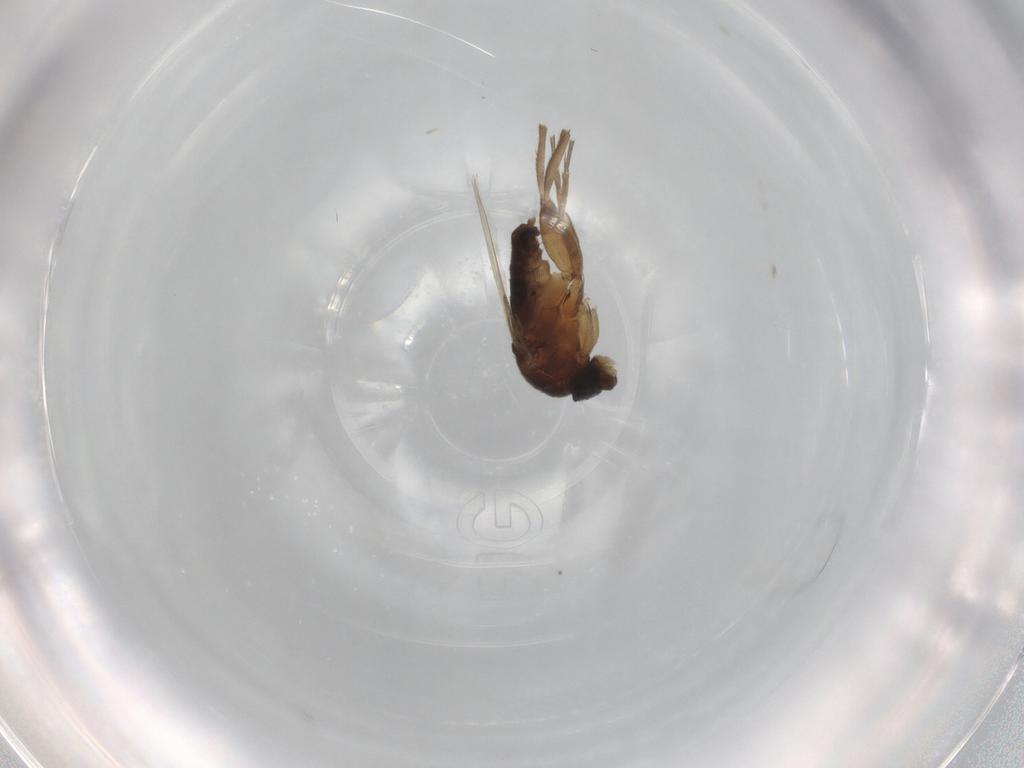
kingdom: Animalia
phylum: Arthropoda
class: Insecta
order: Diptera
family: Phoridae
